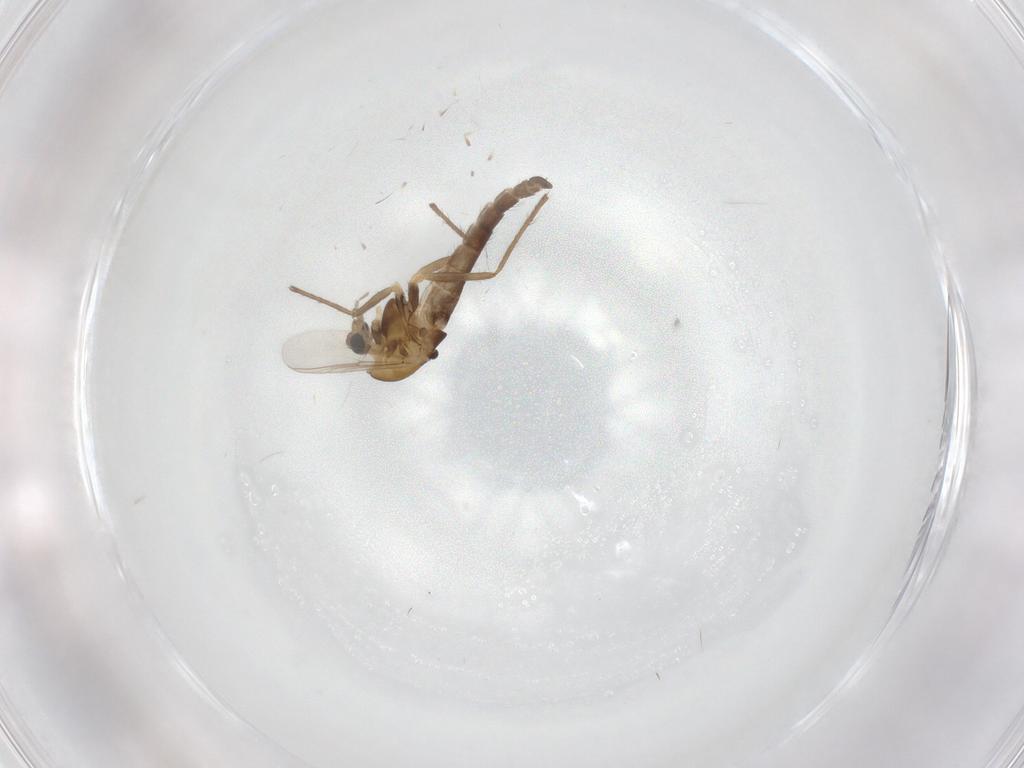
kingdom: Animalia
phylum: Arthropoda
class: Insecta
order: Diptera
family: Chironomidae
